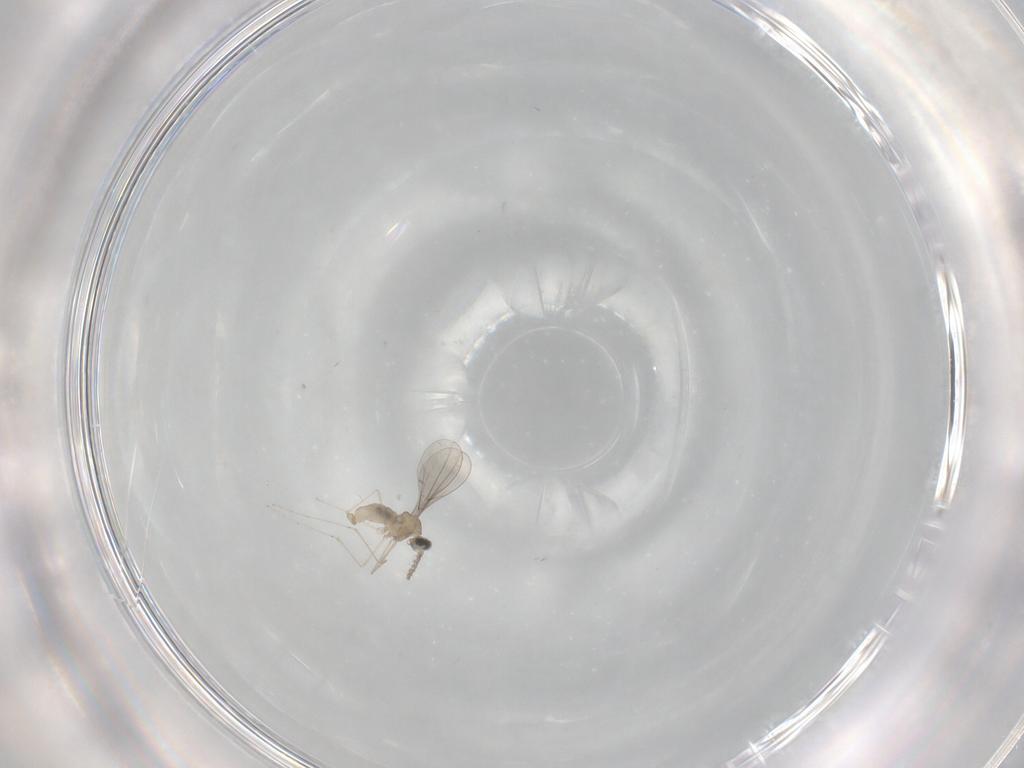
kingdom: Animalia
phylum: Arthropoda
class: Insecta
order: Diptera
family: Cecidomyiidae
